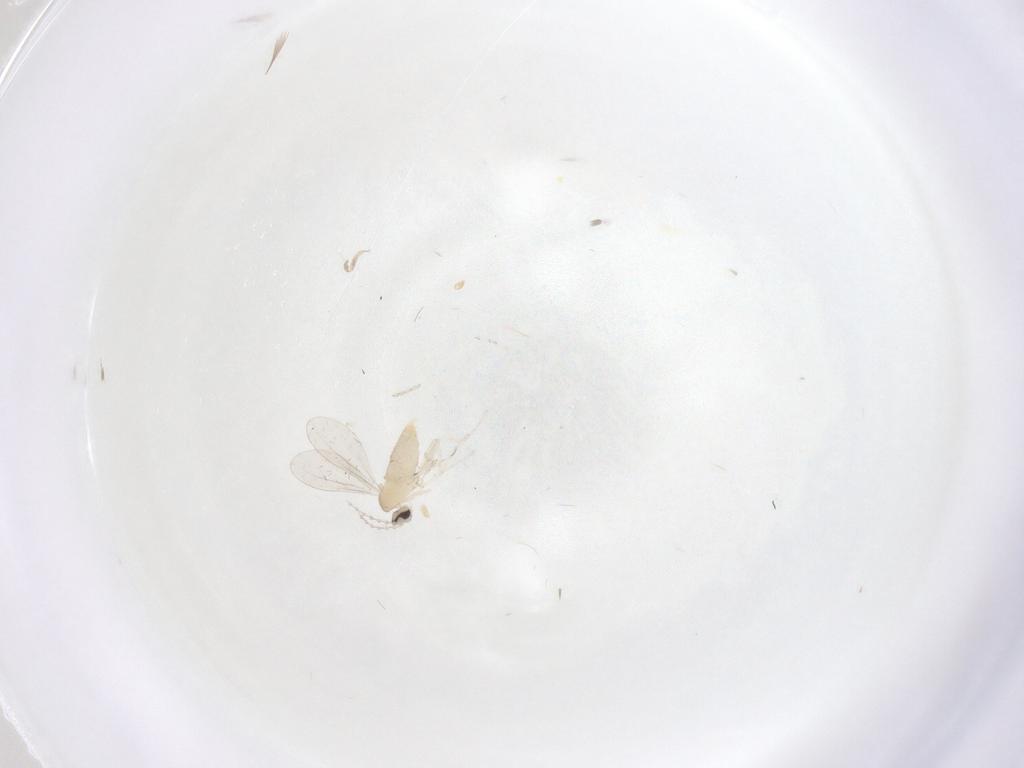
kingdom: Animalia
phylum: Arthropoda
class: Insecta
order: Diptera
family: Cecidomyiidae
